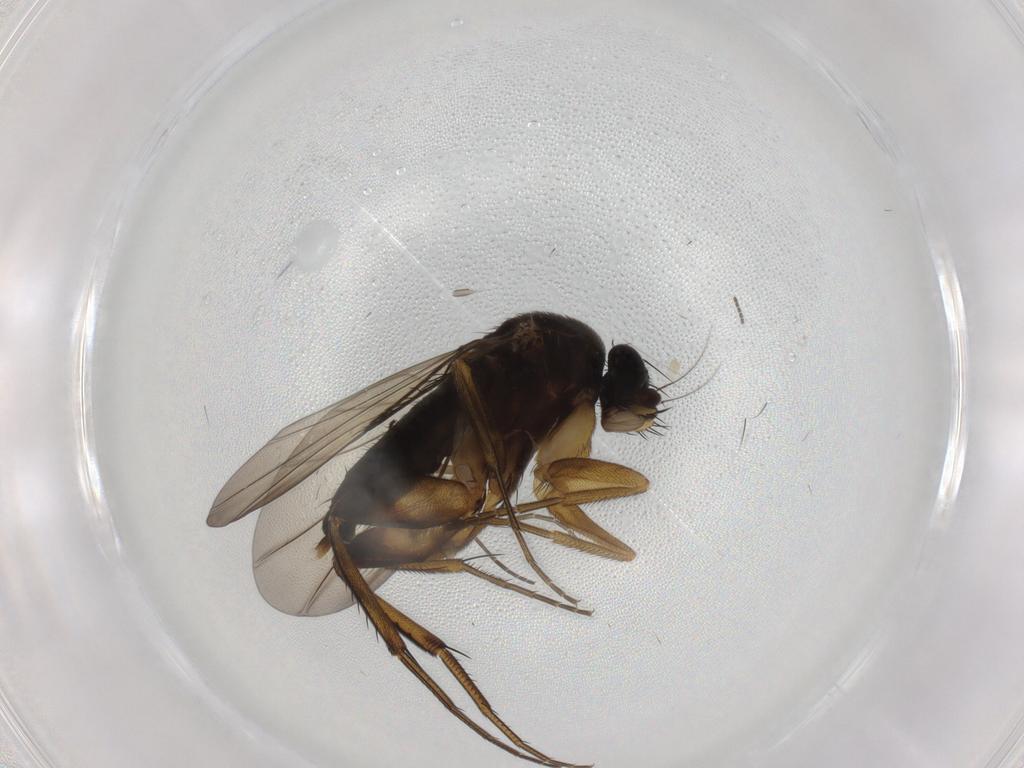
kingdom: Animalia
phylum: Arthropoda
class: Insecta
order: Diptera
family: Phoridae
